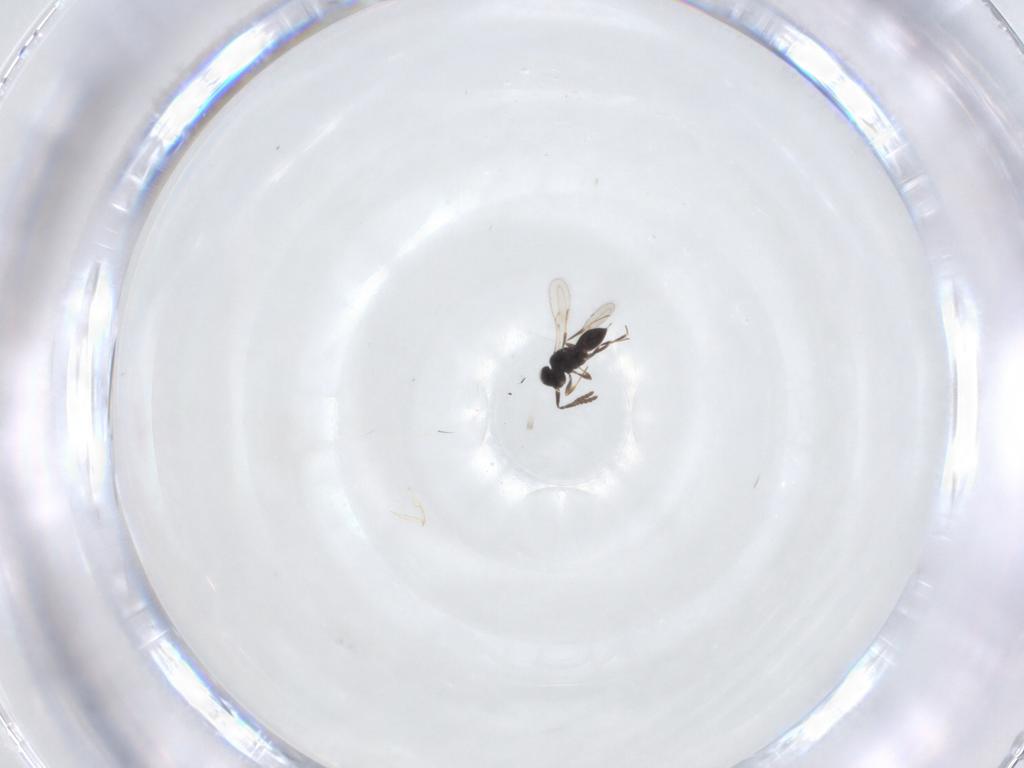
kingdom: Animalia
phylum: Arthropoda
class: Insecta
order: Hymenoptera
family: Scelionidae
